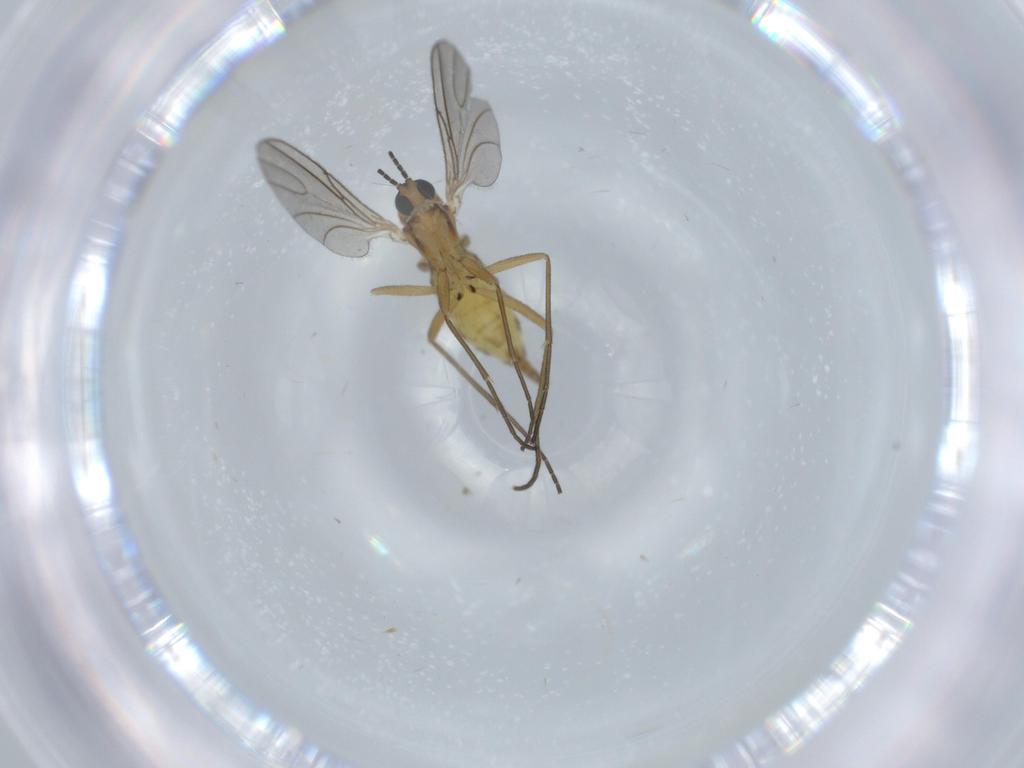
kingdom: Animalia
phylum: Arthropoda
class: Insecta
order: Diptera
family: Sciaridae
